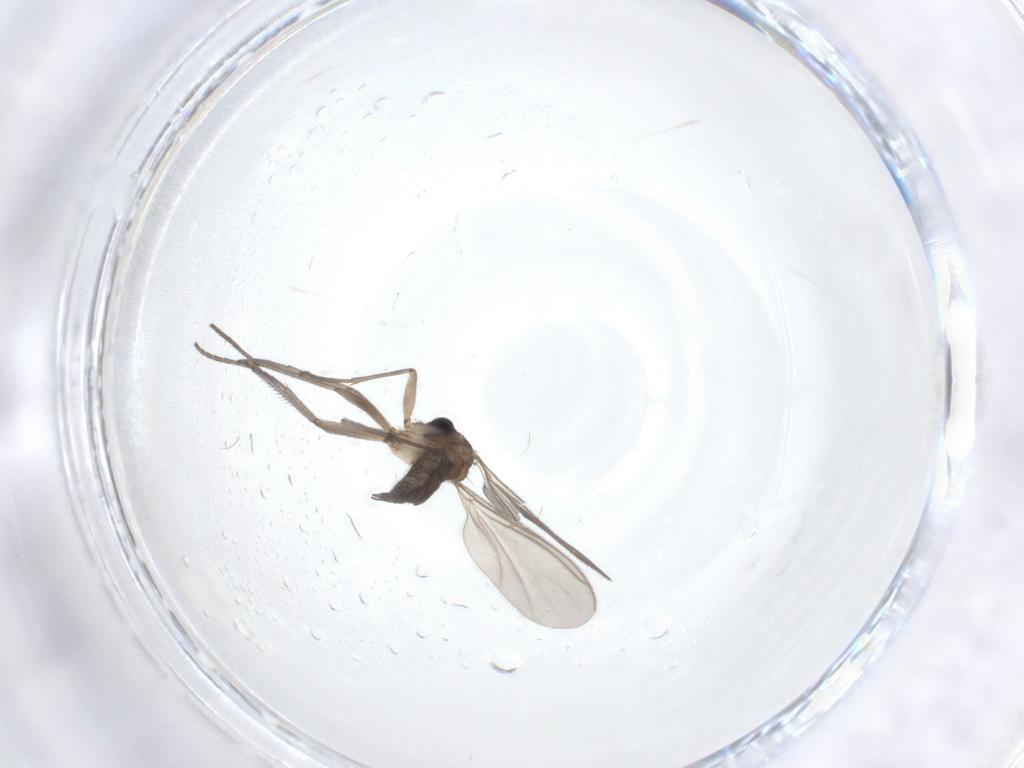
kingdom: Animalia
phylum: Arthropoda
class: Insecta
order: Diptera
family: Sciaridae
